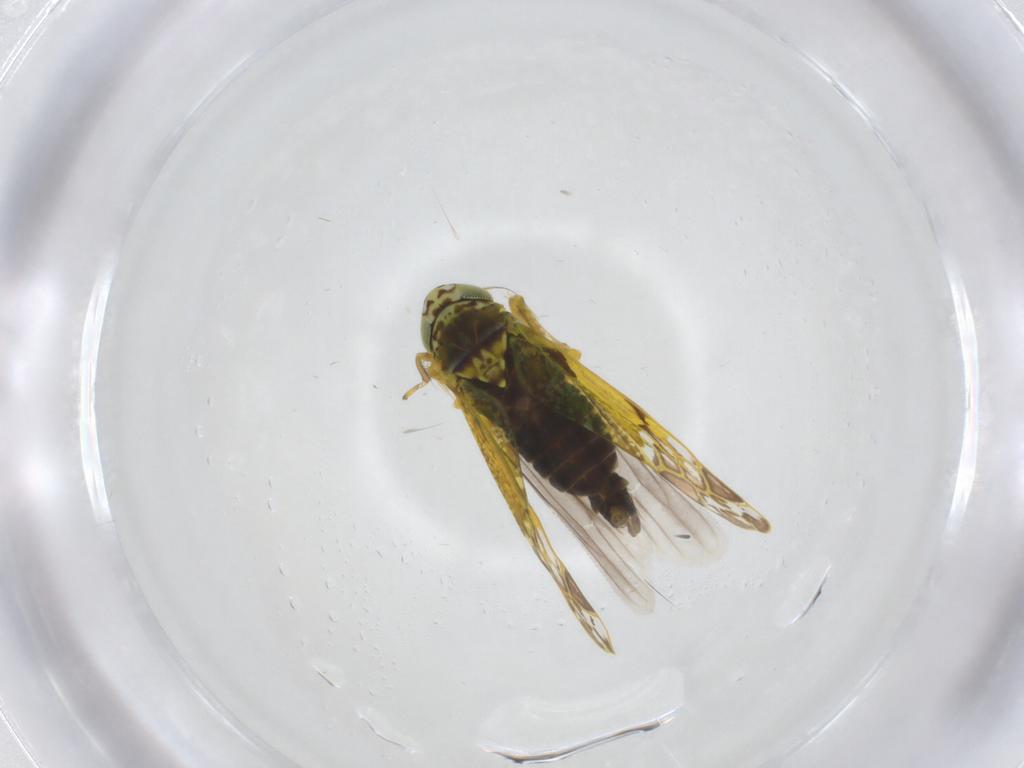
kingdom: Animalia
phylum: Arthropoda
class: Insecta
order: Hemiptera
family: Cicadellidae
